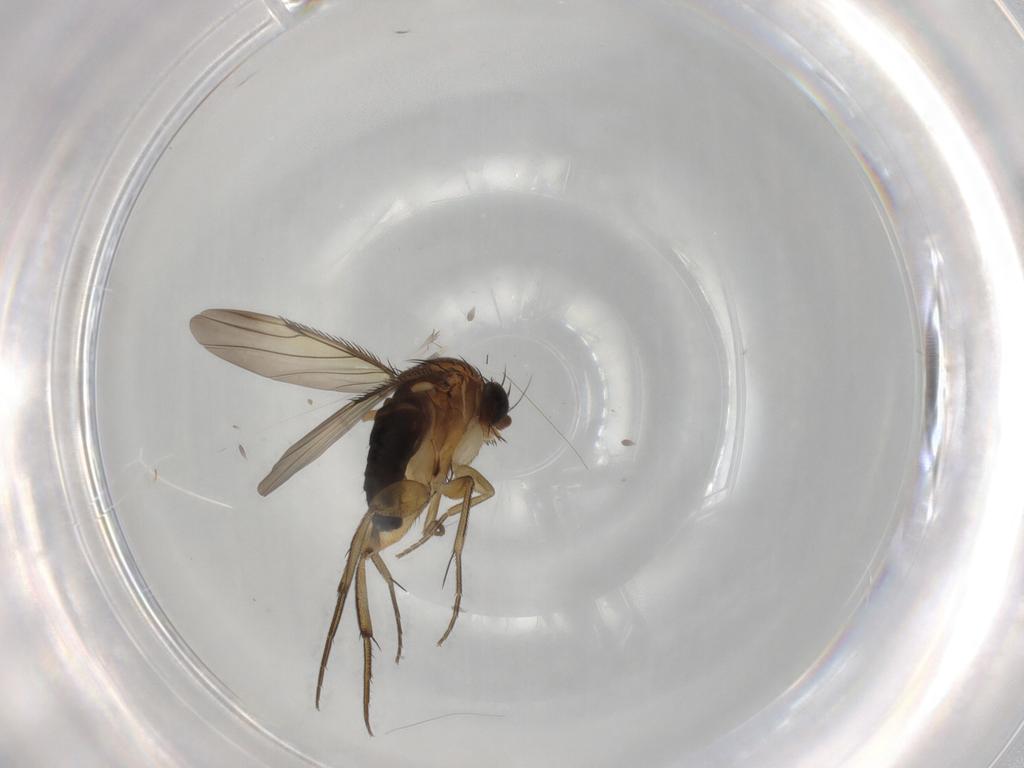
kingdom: Animalia
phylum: Arthropoda
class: Insecta
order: Diptera
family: Phoridae
